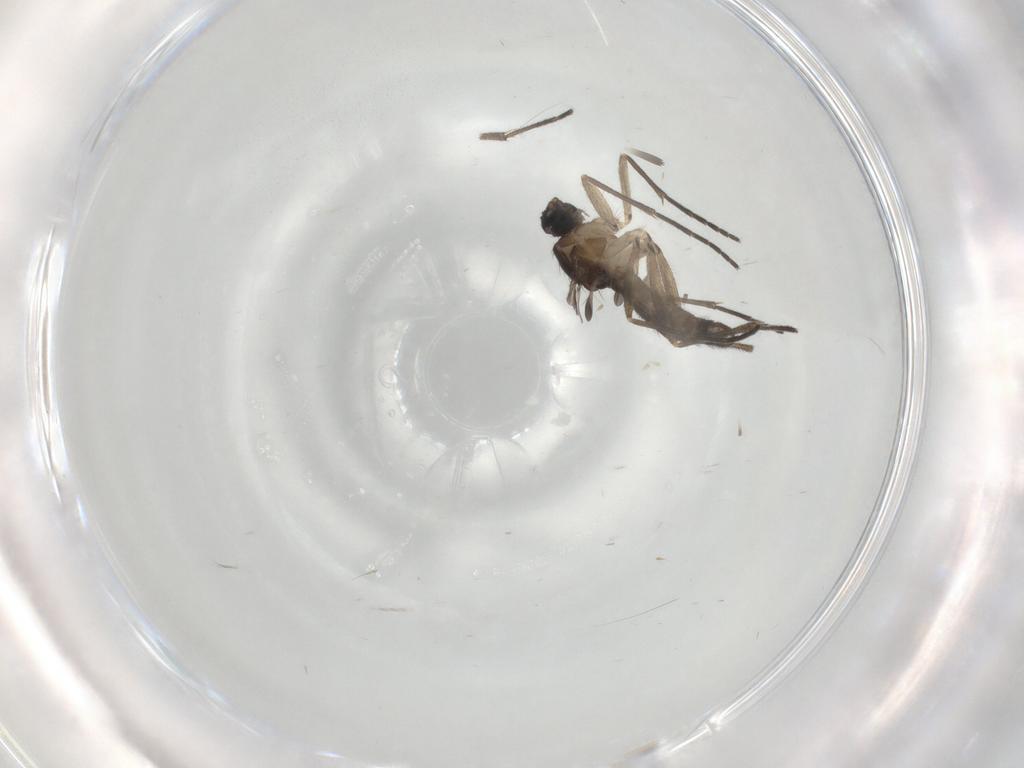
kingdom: Animalia
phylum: Arthropoda
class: Insecta
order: Diptera
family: Sciaridae
